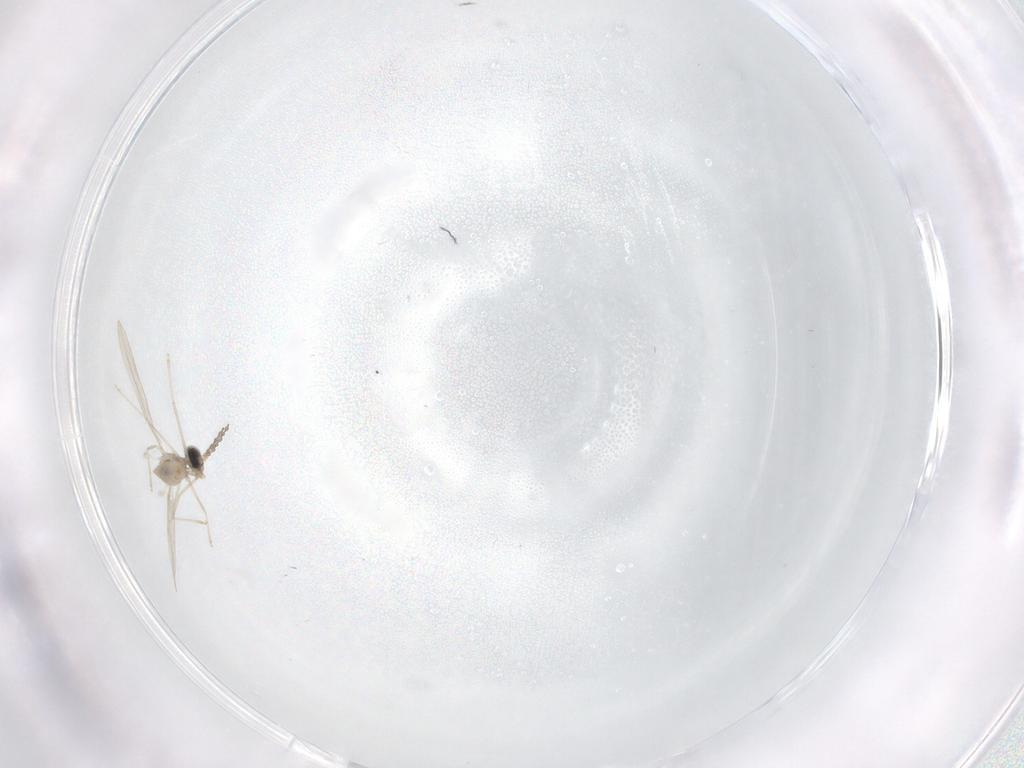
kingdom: Animalia
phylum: Arthropoda
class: Insecta
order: Diptera
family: Cecidomyiidae
